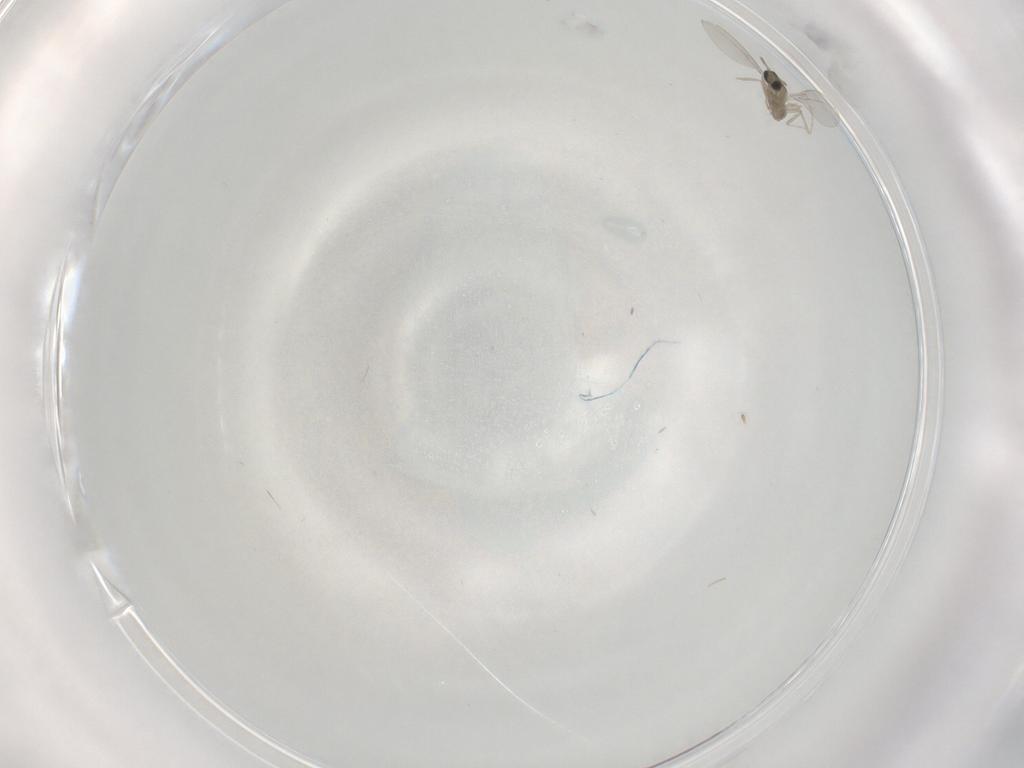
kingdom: Animalia
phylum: Arthropoda
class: Insecta
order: Diptera
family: Cecidomyiidae
